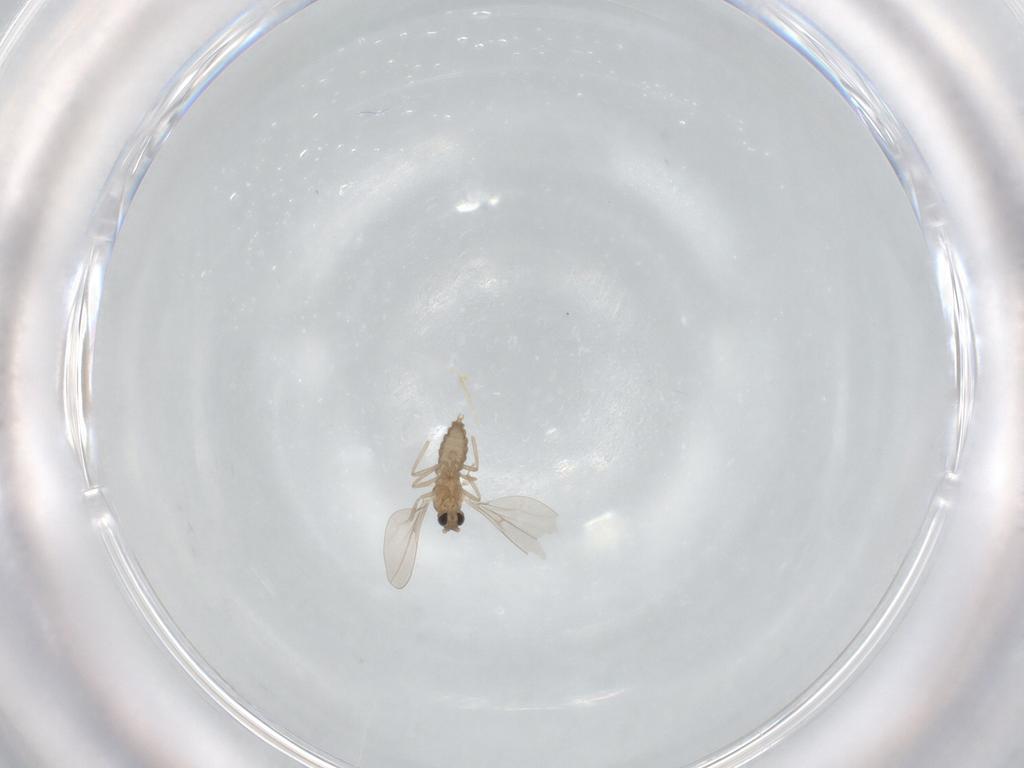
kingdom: Animalia
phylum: Arthropoda
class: Insecta
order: Diptera
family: Cecidomyiidae
